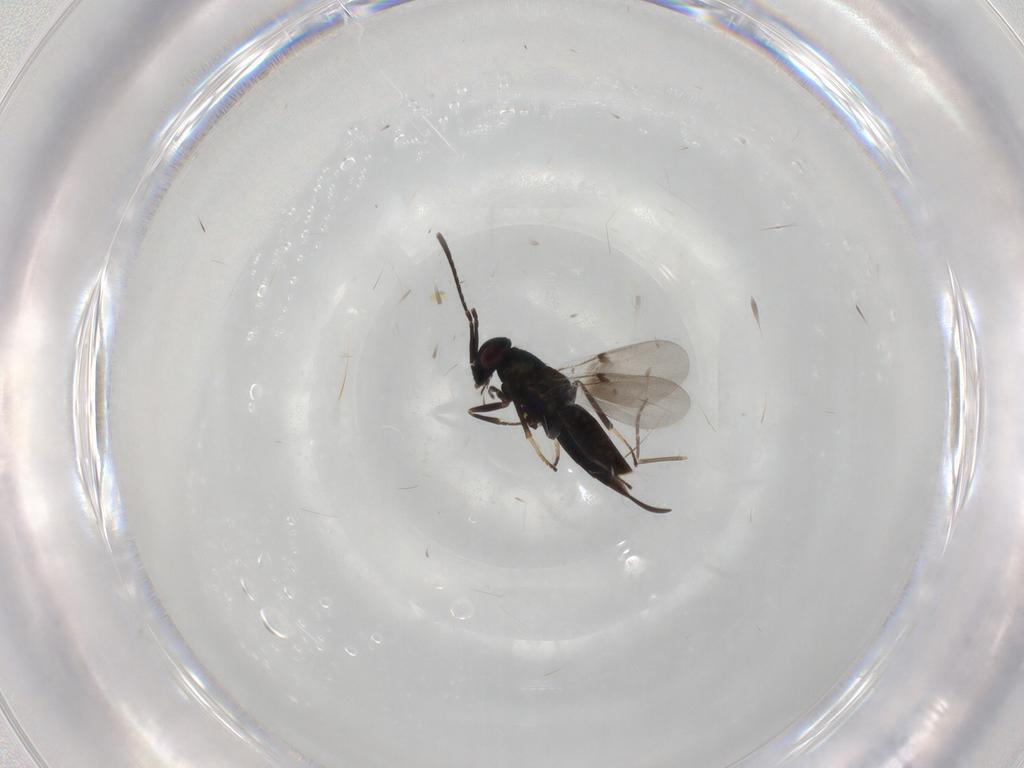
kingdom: Animalia
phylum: Arthropoda
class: Insecta
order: Hymenoptera
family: Encyrtidae
